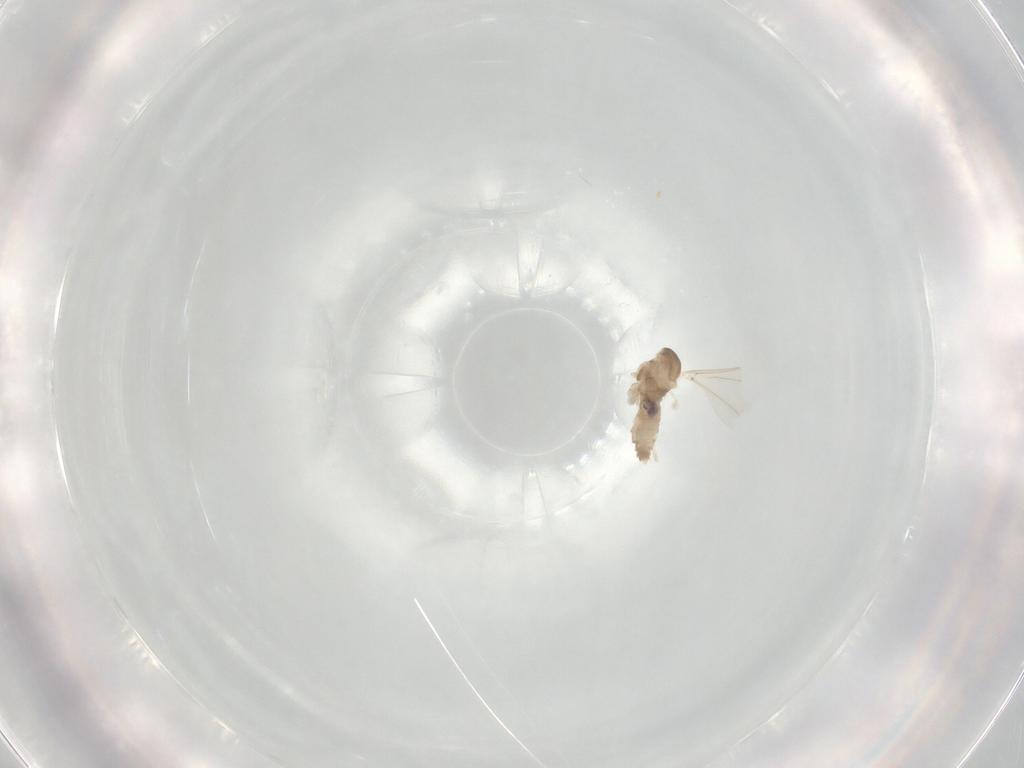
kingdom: Animalia
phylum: Arthropoda
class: Insecta
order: Diptera
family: Cecidomyiidae
